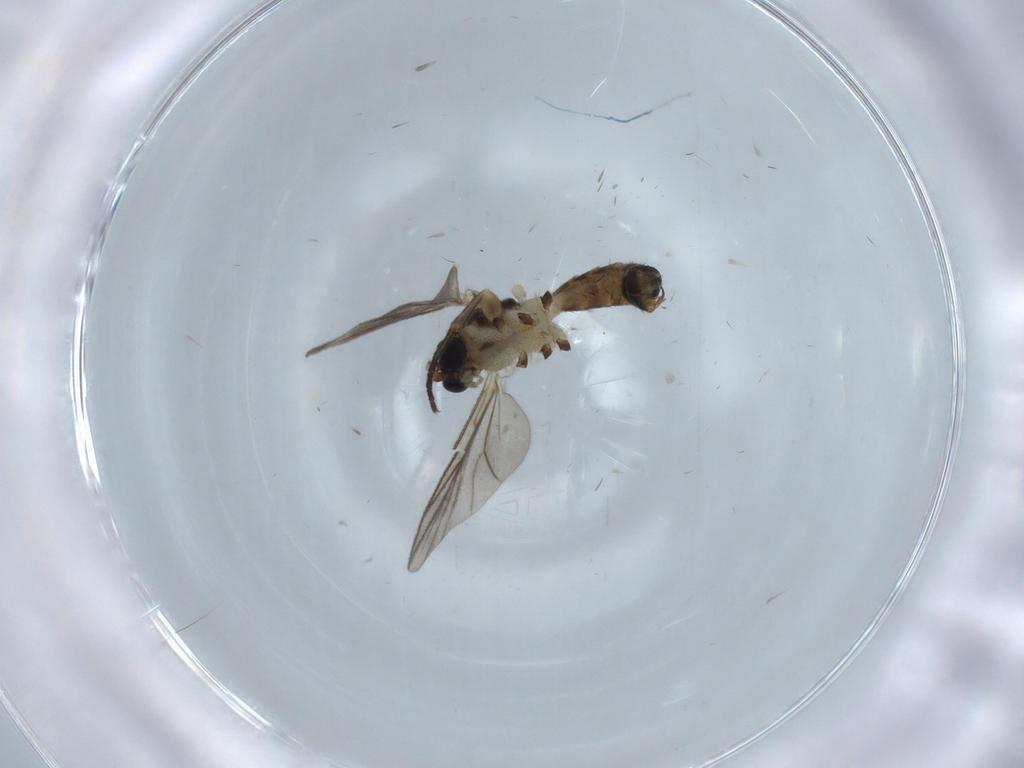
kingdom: Animalia
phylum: Arthropoda
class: Insecta
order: Diptera
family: Mycetophilidae
